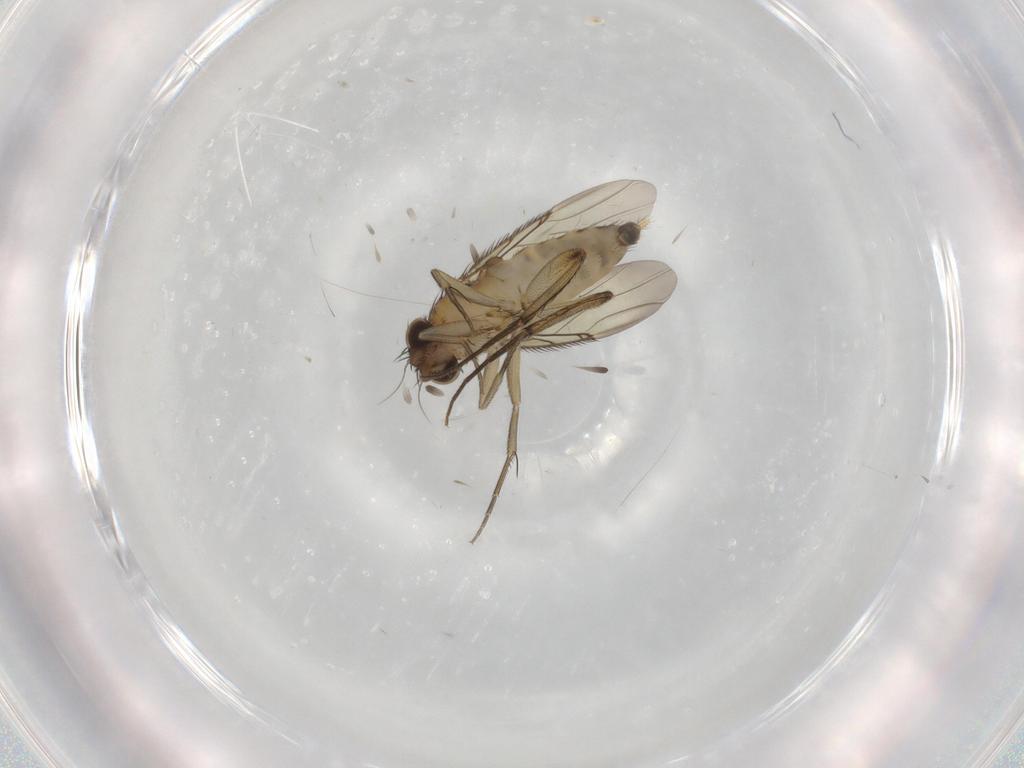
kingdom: Animalia
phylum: Arthropoda
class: Insecta
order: Diptera
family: Phoridae
